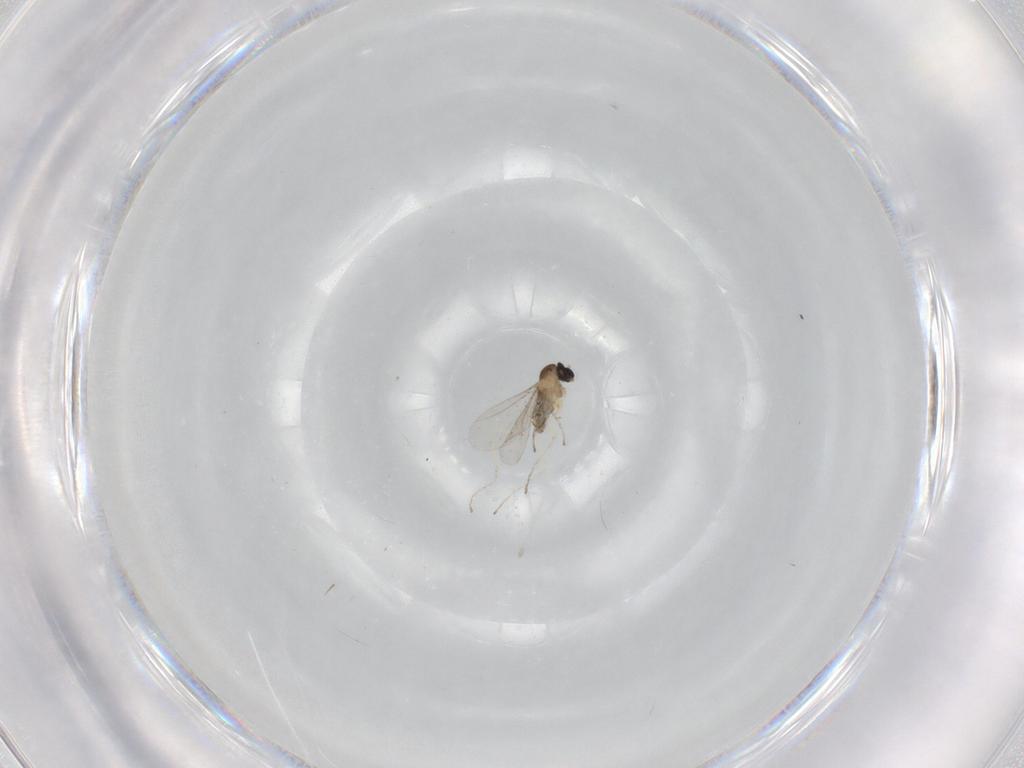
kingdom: Animalia
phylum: Arthropoda
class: Insecta
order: Diptera
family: Cecidomyiidae
